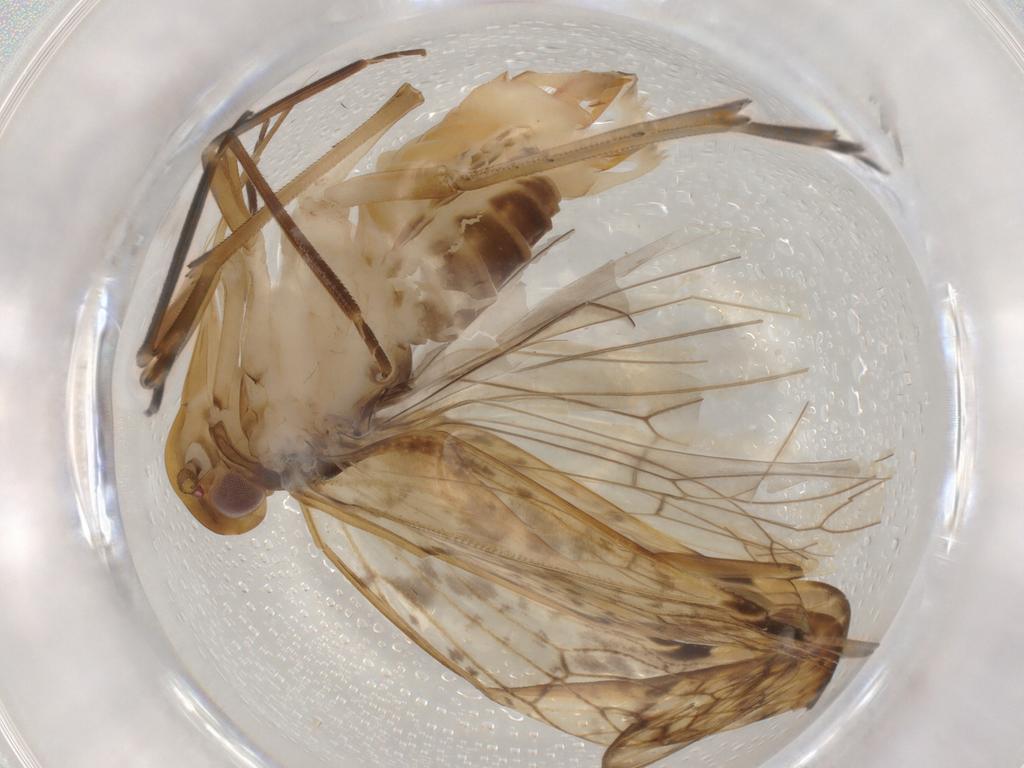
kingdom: Animalia
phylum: Arthropoda
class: Insecta
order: Hemiptera
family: Cixiidae
